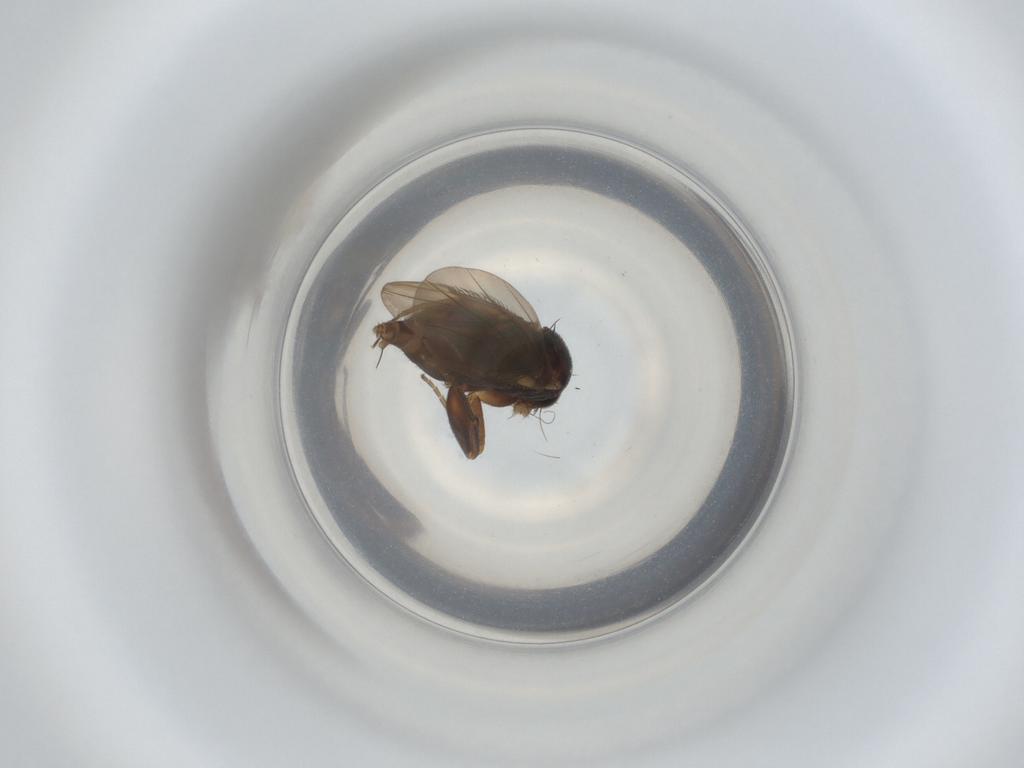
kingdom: Animalia
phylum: Arthropoda
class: Insecta
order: Diptera
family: Phoridae
